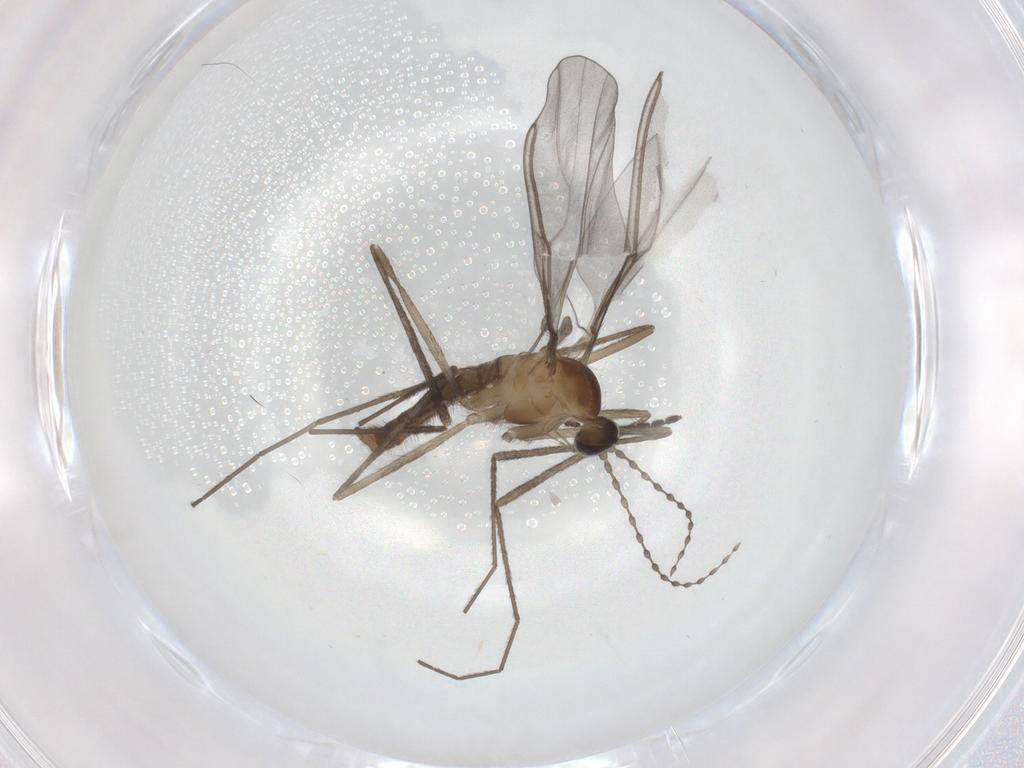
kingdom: Animalia
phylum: Arthropoda
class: Insecta
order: Diptera
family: Cecidomyiidae
